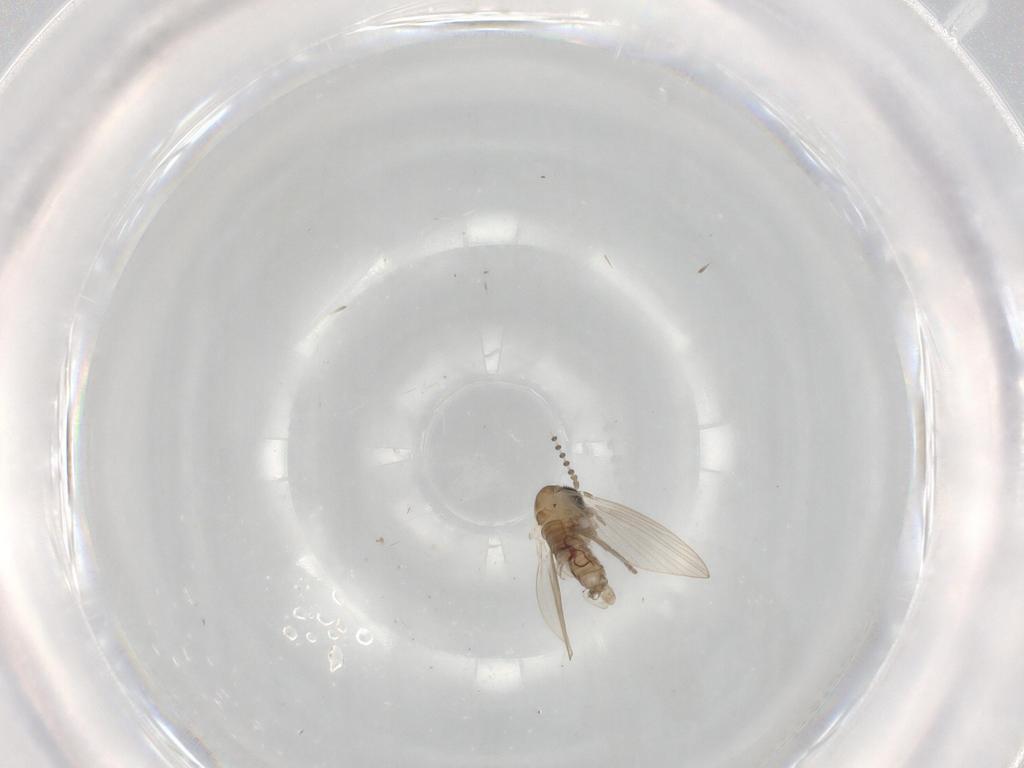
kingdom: Animalia
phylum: Arthropoda
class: Insecta
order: Diptera
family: Psychodidae
